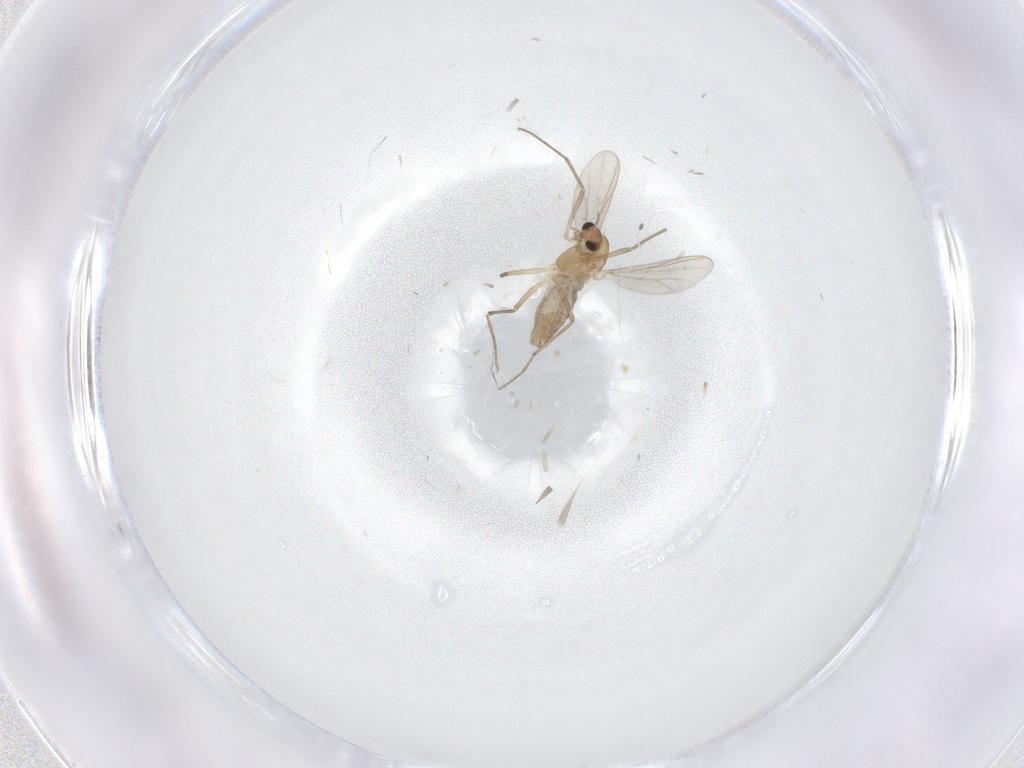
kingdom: Animalia
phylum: Arthropoda
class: Insecta
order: Diptera
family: Chironomidae
